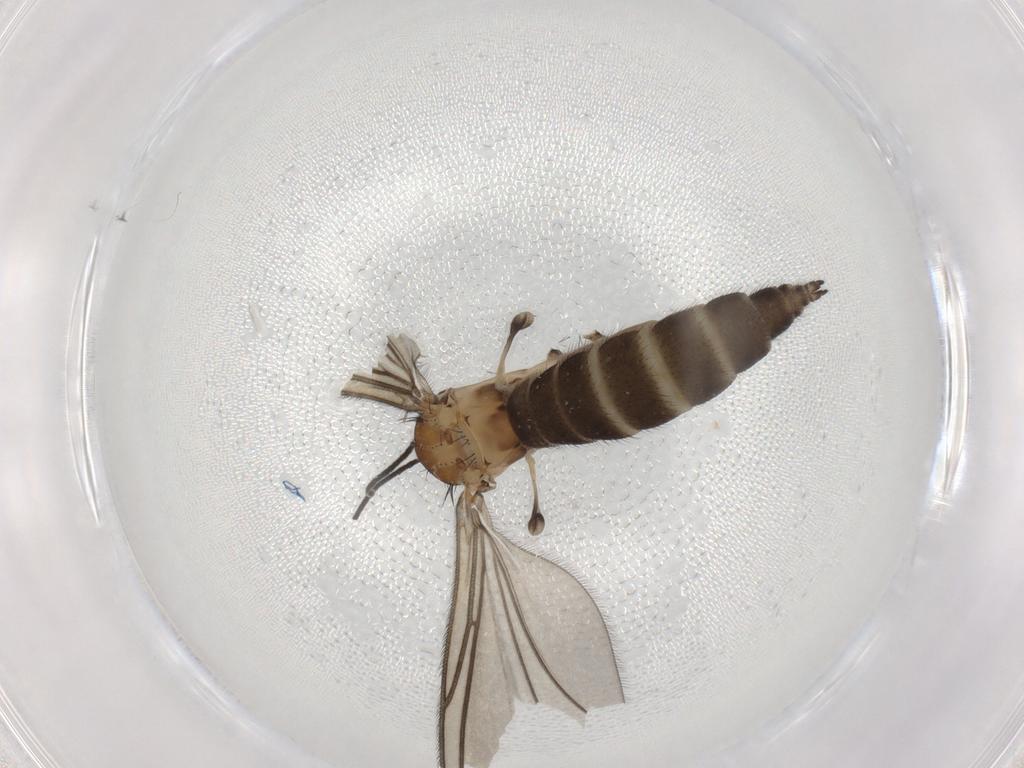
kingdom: Animalia
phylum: Arthropoda
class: Insecta
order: Diptera
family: Sciaridae
